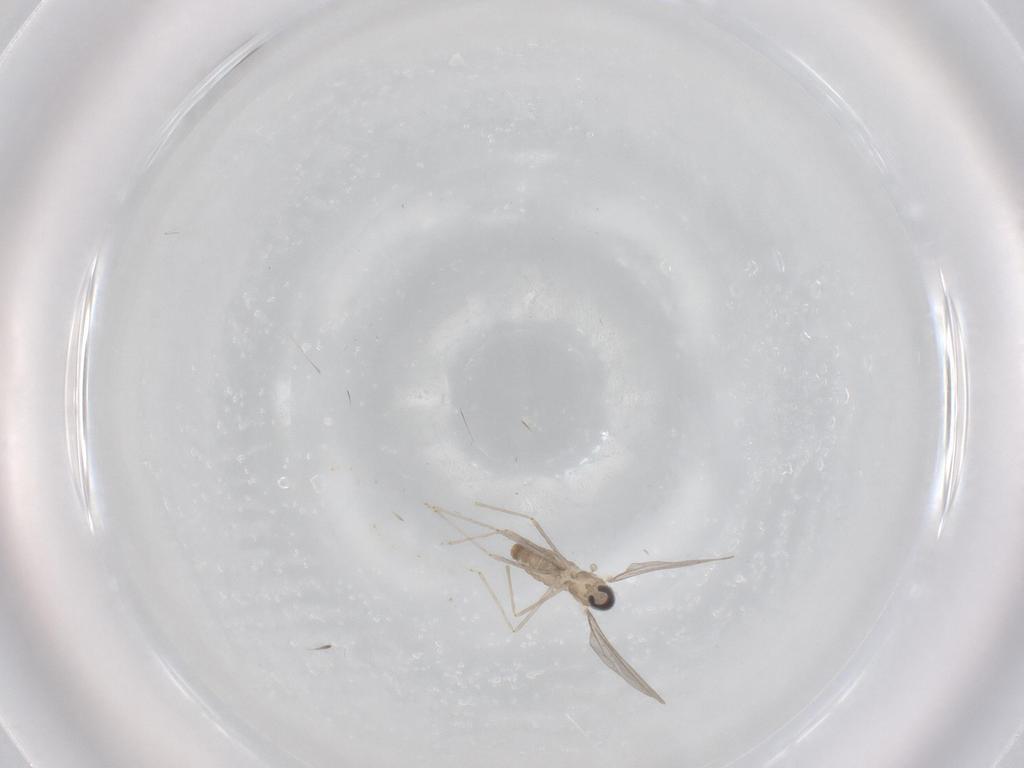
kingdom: Animalia
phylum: Arthropoda
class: Insecta
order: Diptera
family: Cecidomyiidae
